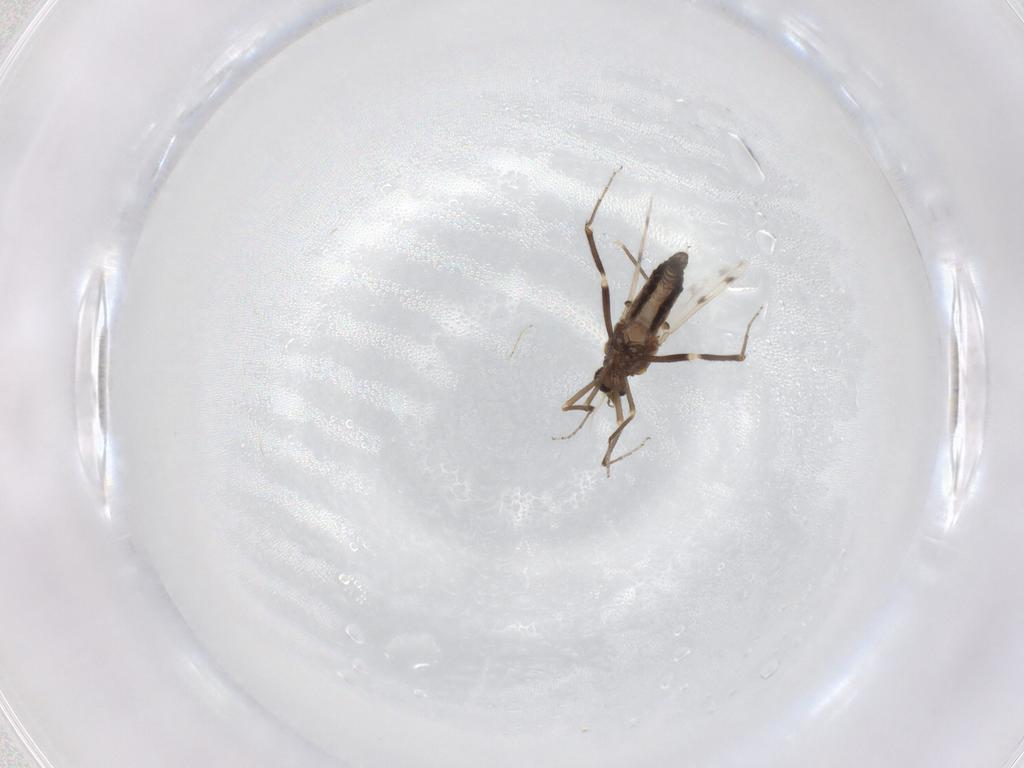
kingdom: Animalia
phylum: Arthropoda
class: Insecta
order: Diptera
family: Ceratopogonidae
